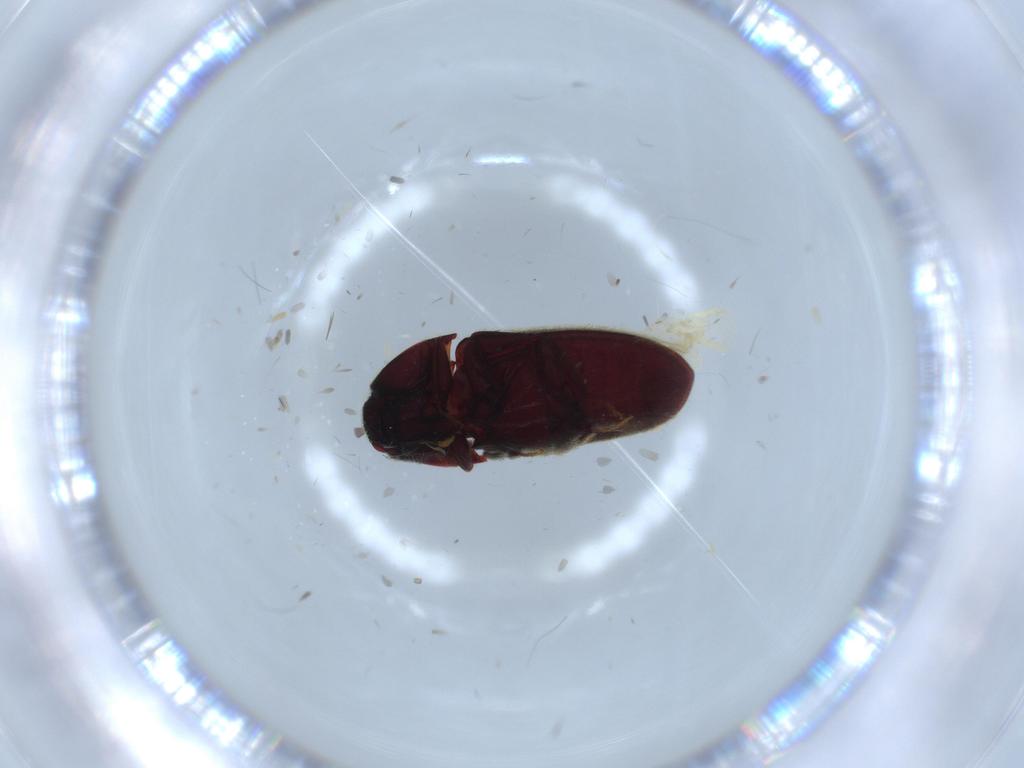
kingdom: Animalia
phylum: Arthropoda
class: Insecta
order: Coleoptera
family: Throscidae
